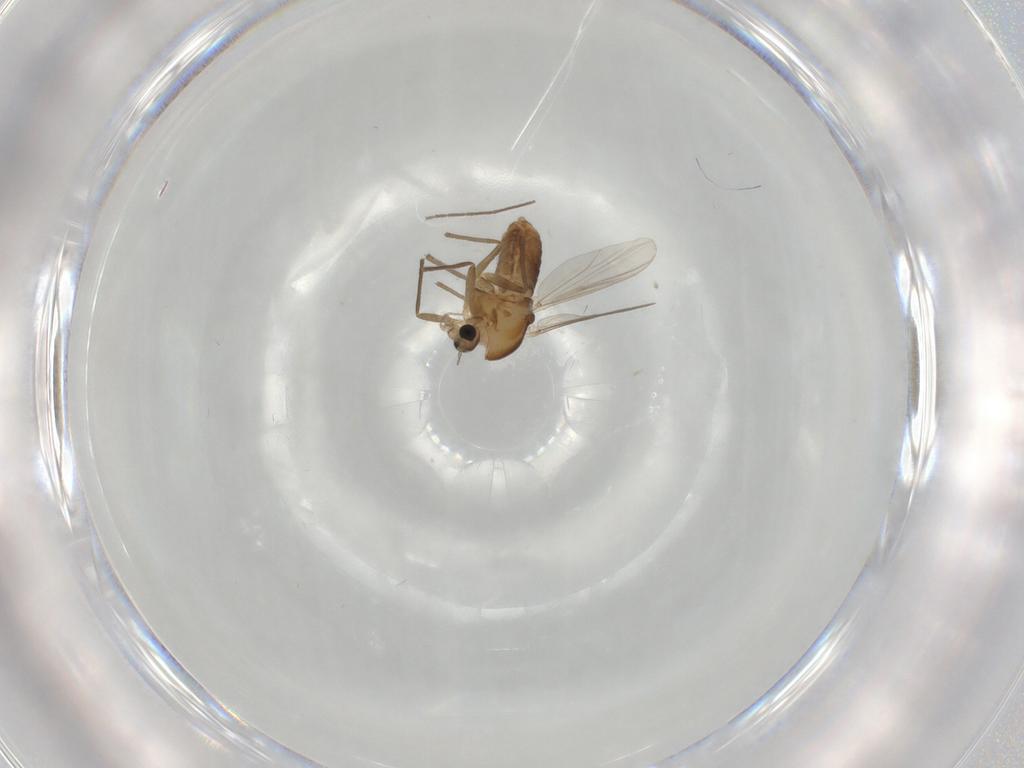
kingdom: Animalia
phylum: Arthropoda
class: Insecta
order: Diptera
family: Chironomidae
